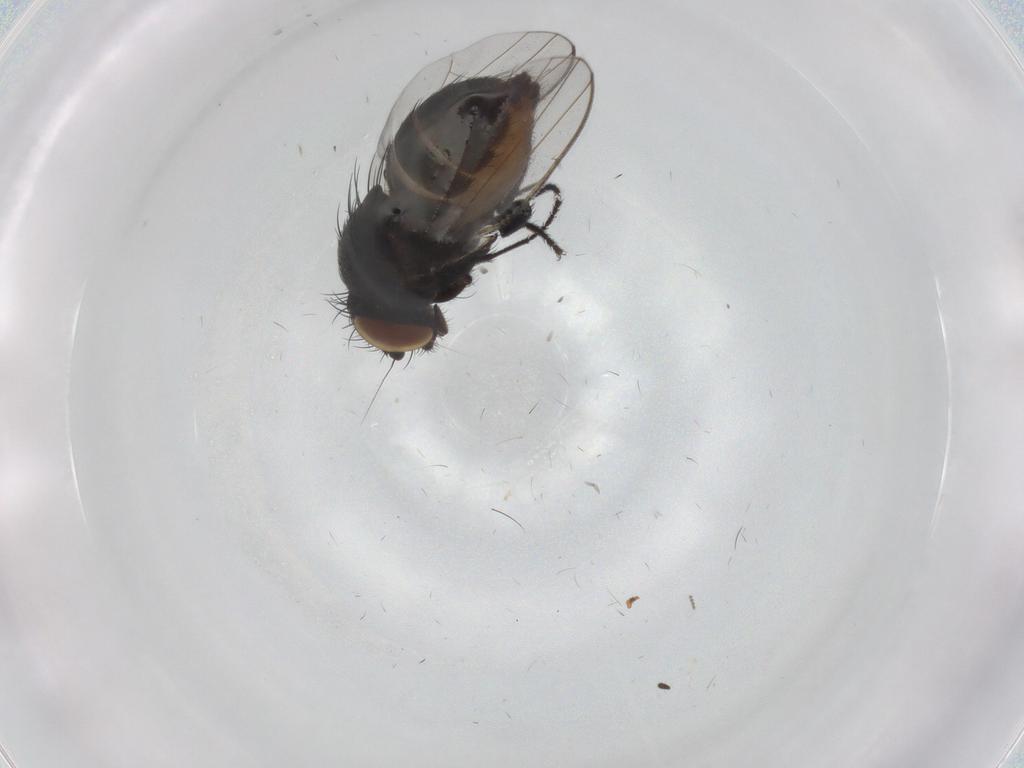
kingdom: Animalia
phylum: Arthropoda
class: Insecta
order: Diptera
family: Milichiidae
